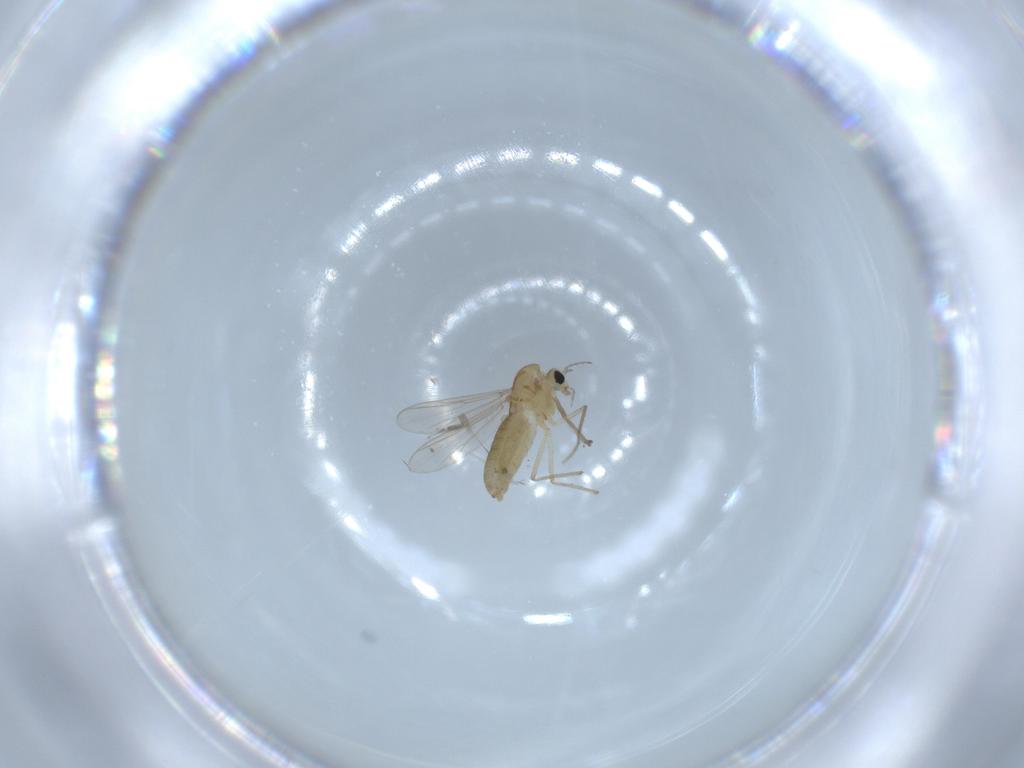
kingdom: Animalia
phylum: Arthropoda
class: Insecta
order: Diptera
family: Chironomidae
